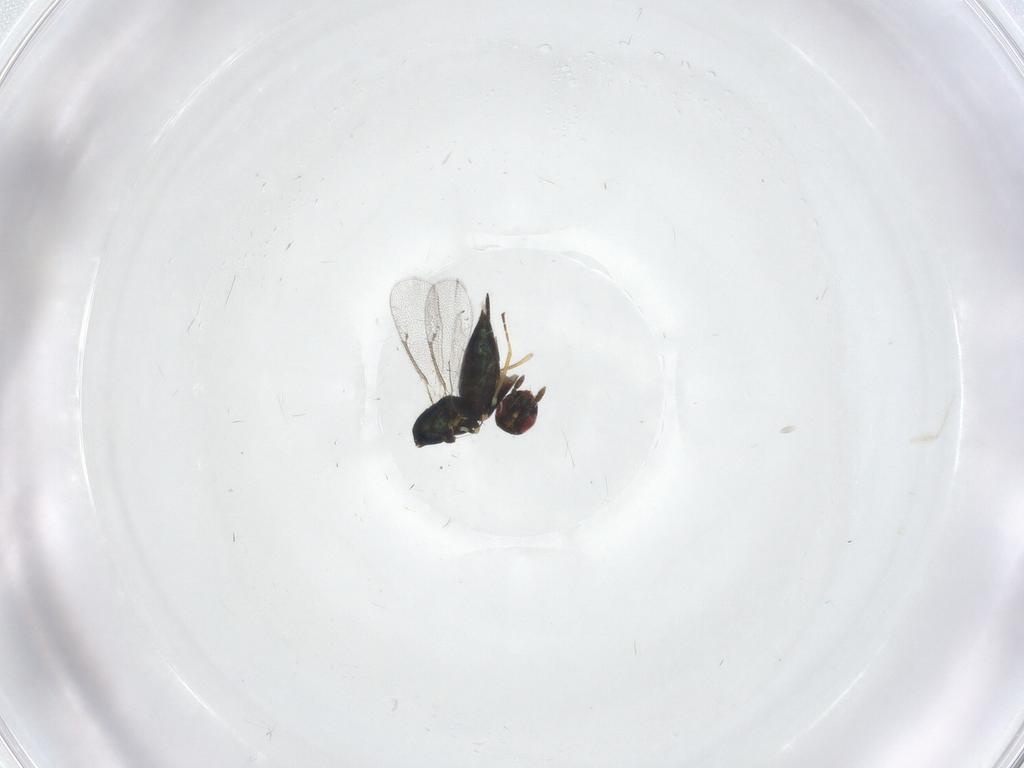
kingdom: Animalia
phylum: Arthropoda
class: Insecta
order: Hymenoptera
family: Eulophidae
